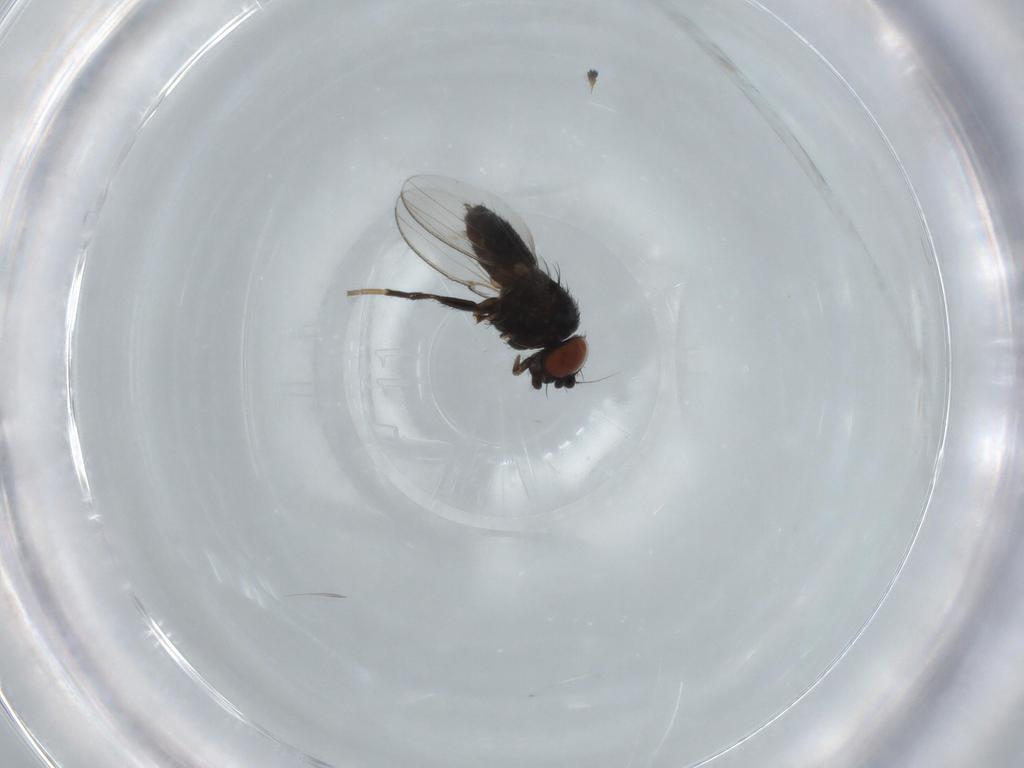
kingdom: Animalia
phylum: Arthropoda
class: Insecta
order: Diptera
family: Milichiidae
